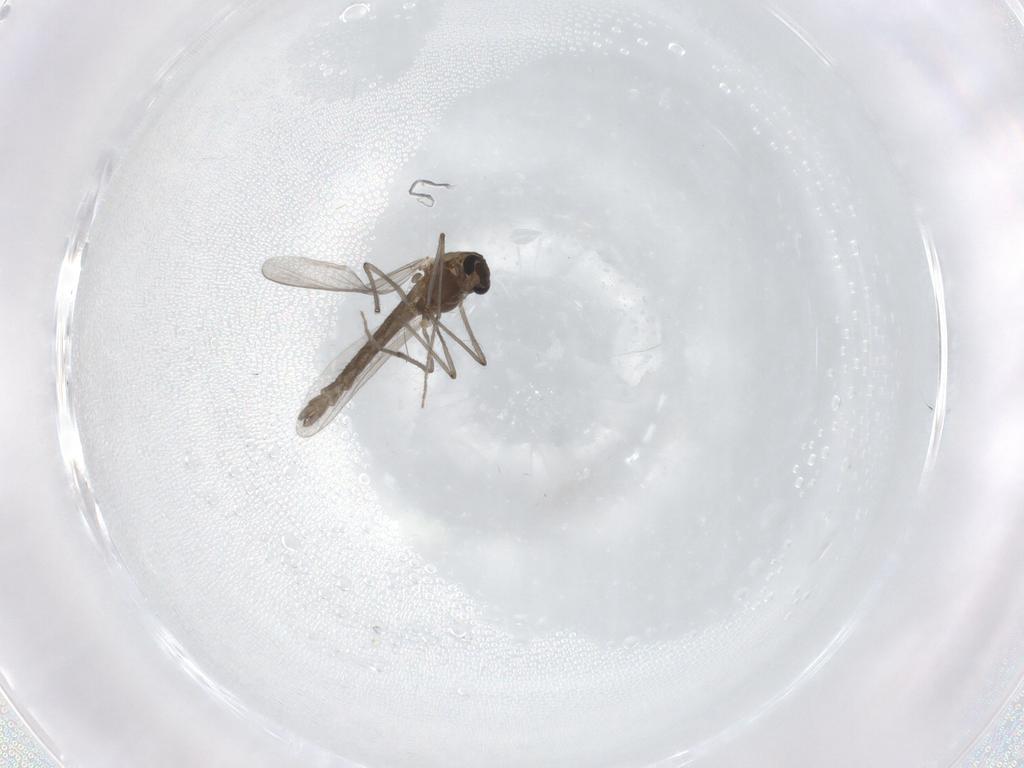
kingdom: Animalia
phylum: Arthropoda
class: Insecta
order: Diptera
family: Chironomidae
